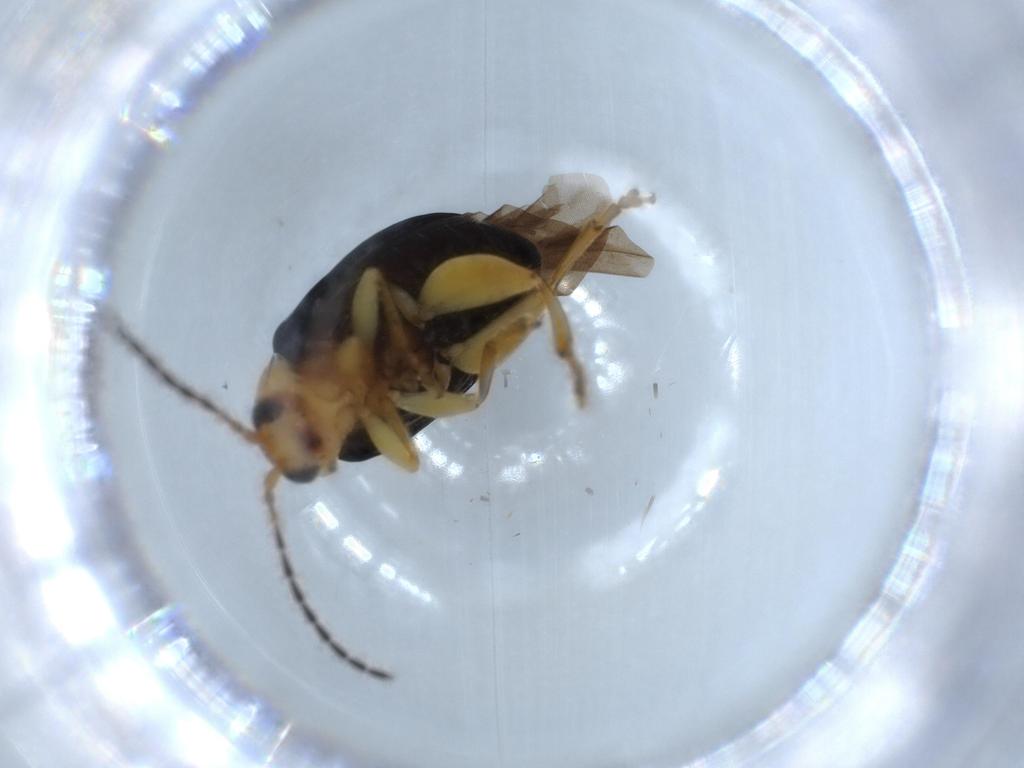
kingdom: Animalia
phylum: Arthropoda
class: Insecta
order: Coleoptera
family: Chrysomelidae
